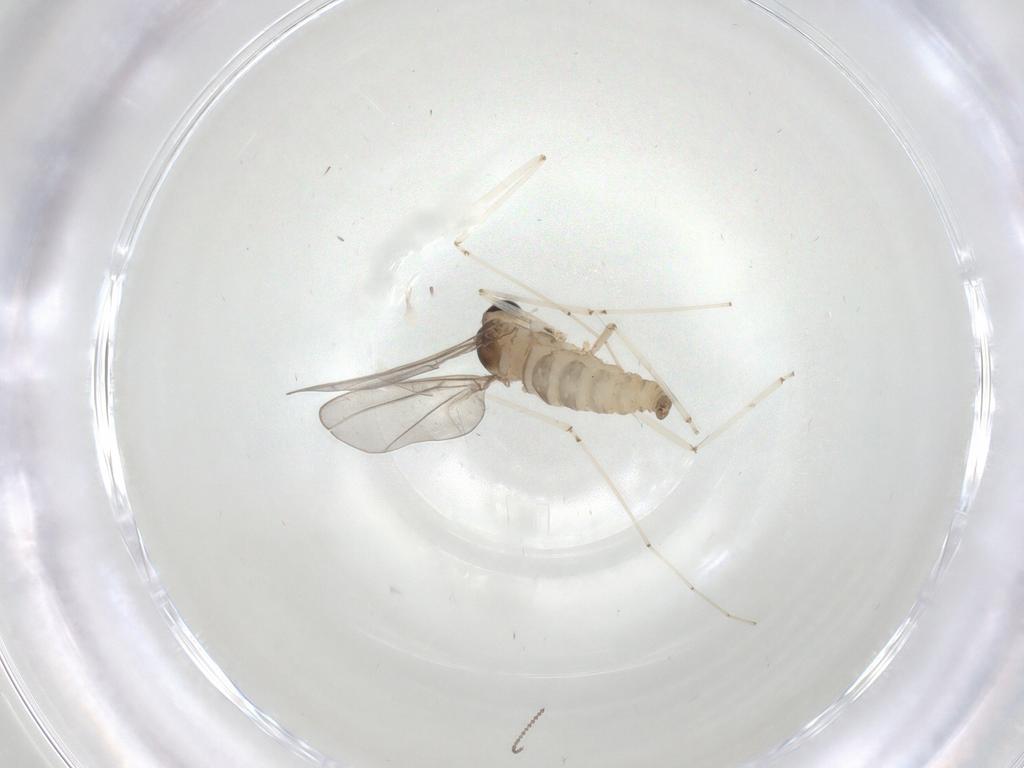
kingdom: Animalia
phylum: Arthropoda
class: Insecta
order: Diptera
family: Cecidomyiidae
